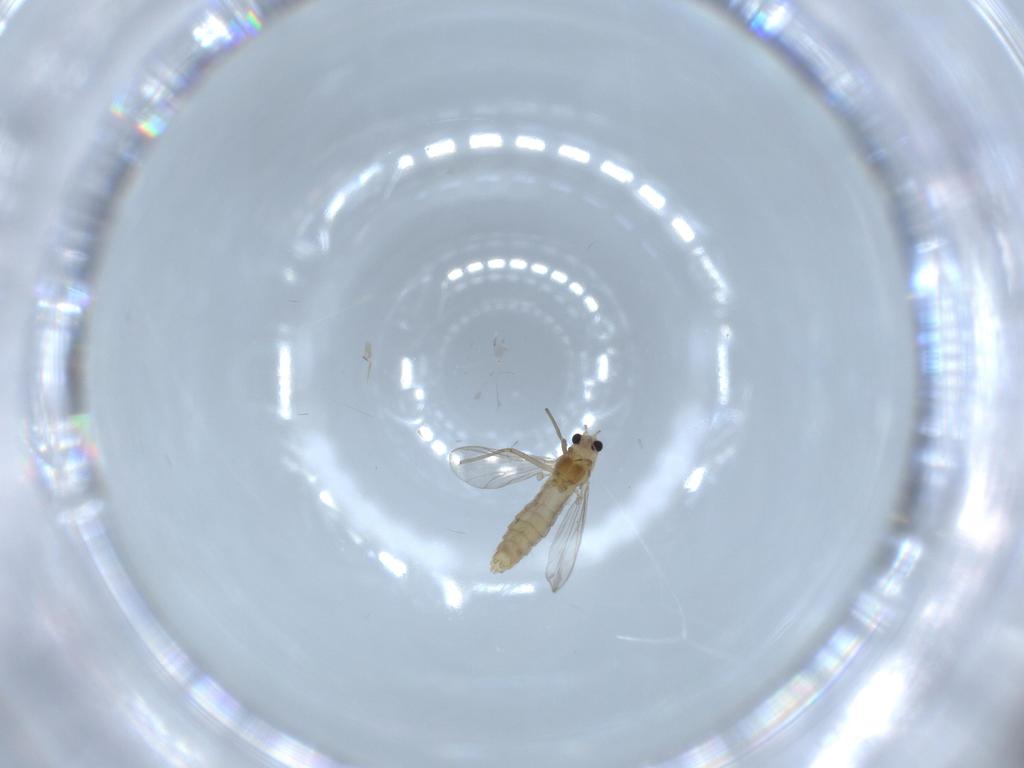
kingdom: Animalia
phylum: Arthropoda
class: Insecta
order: Diptera
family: Chironomidae
